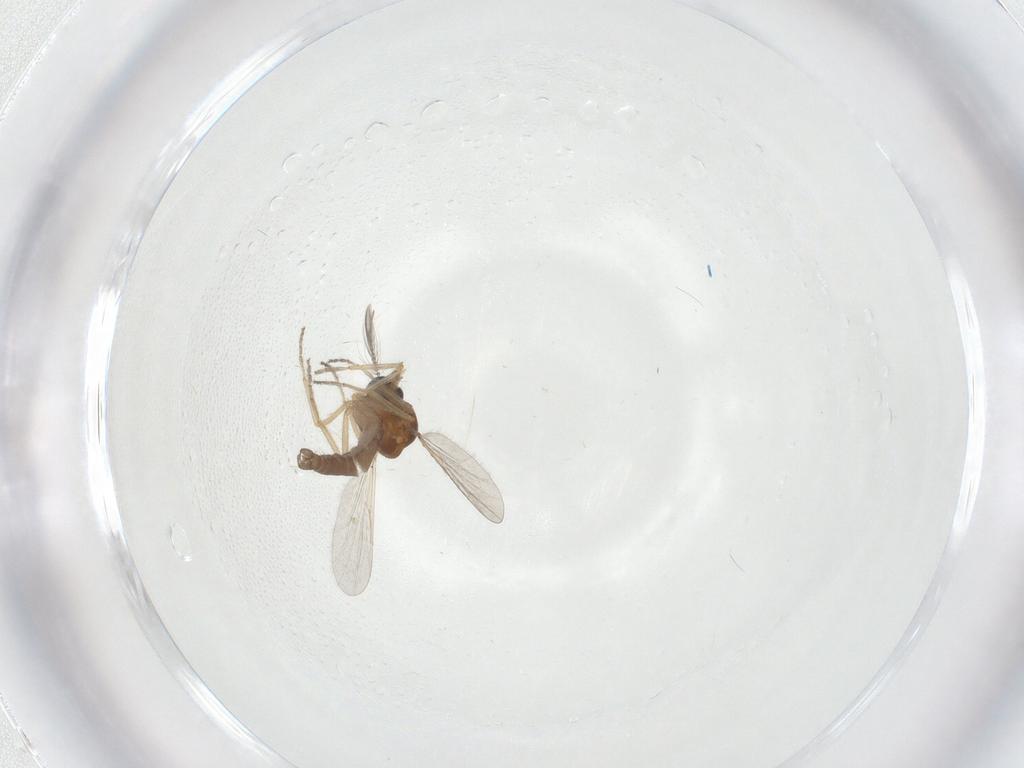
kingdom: Animalia
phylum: Arthropoda
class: Insecta
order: Diptera
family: Ceratopogonidae
